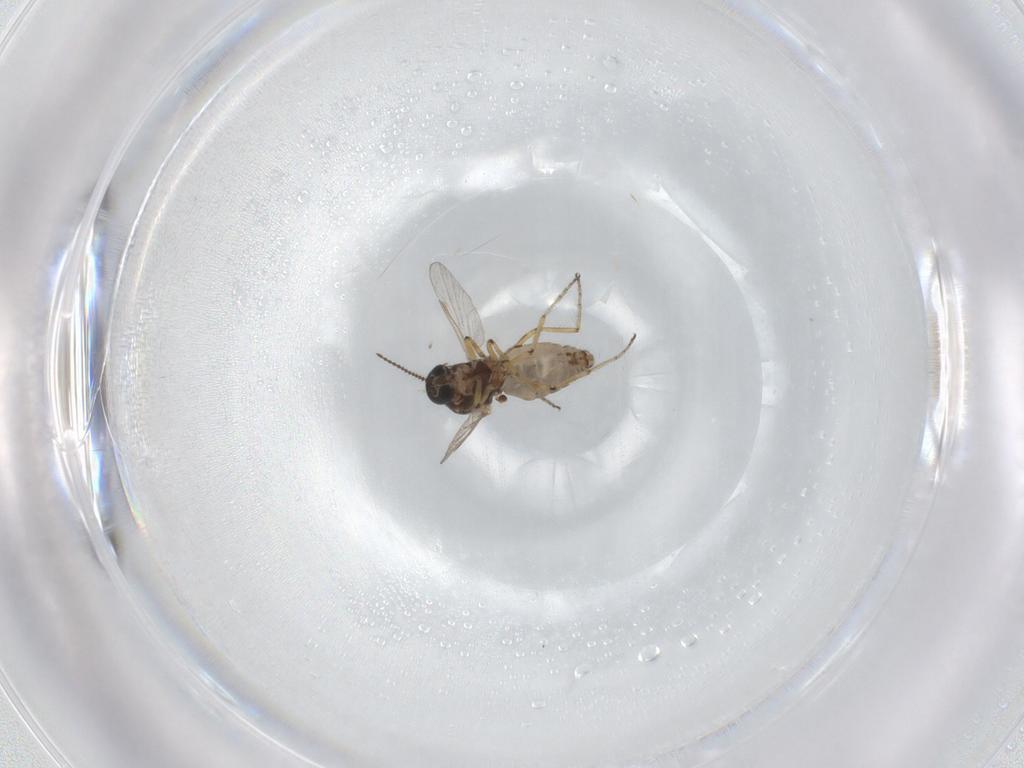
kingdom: Animalia
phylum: Arthropoda
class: Insecta
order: Diptera
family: Ceratopogonidae
